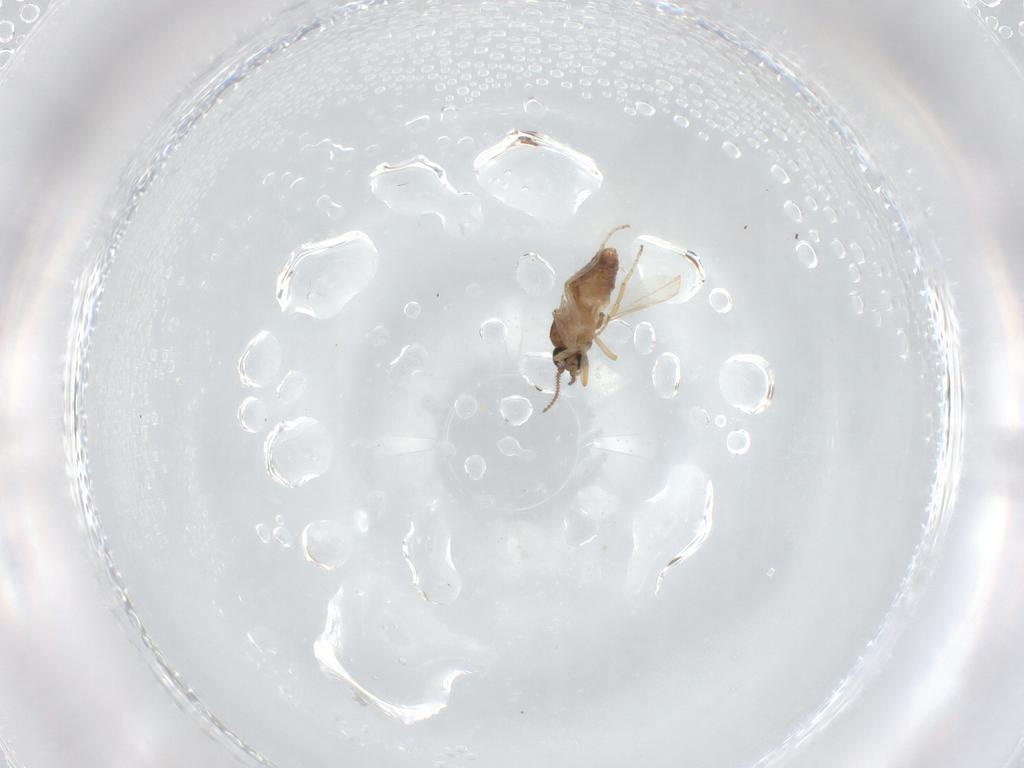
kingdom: Animalia
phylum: Arthropoda
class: Insecta
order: Diptera
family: Ceratopogonidae
